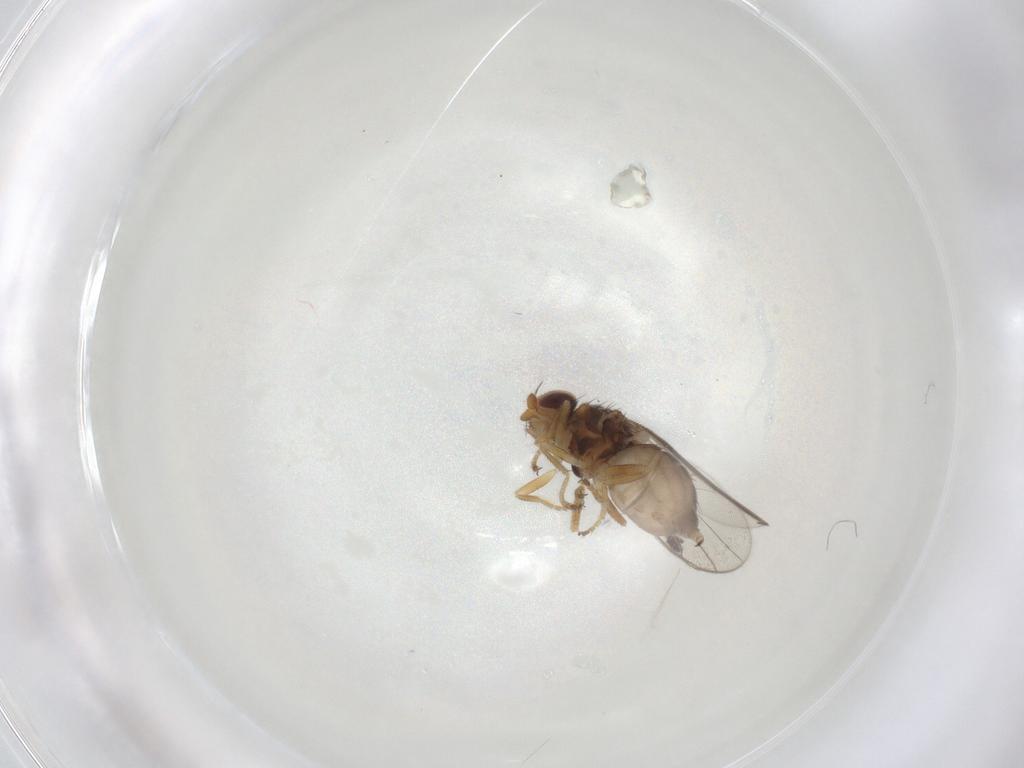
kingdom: Animalia
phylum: Arthropoda
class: Insecta
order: Diptera
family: Chloropidae
